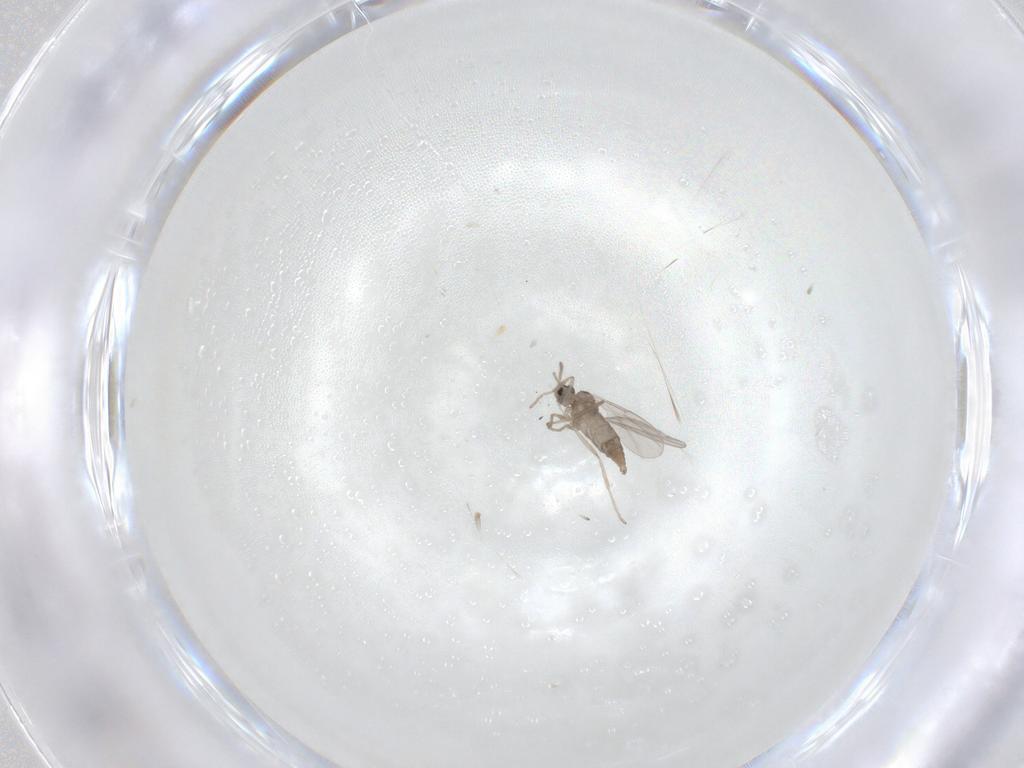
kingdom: Animalia
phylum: Arthropoda
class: Insecta
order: Diptera
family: Cecidomyiidae
